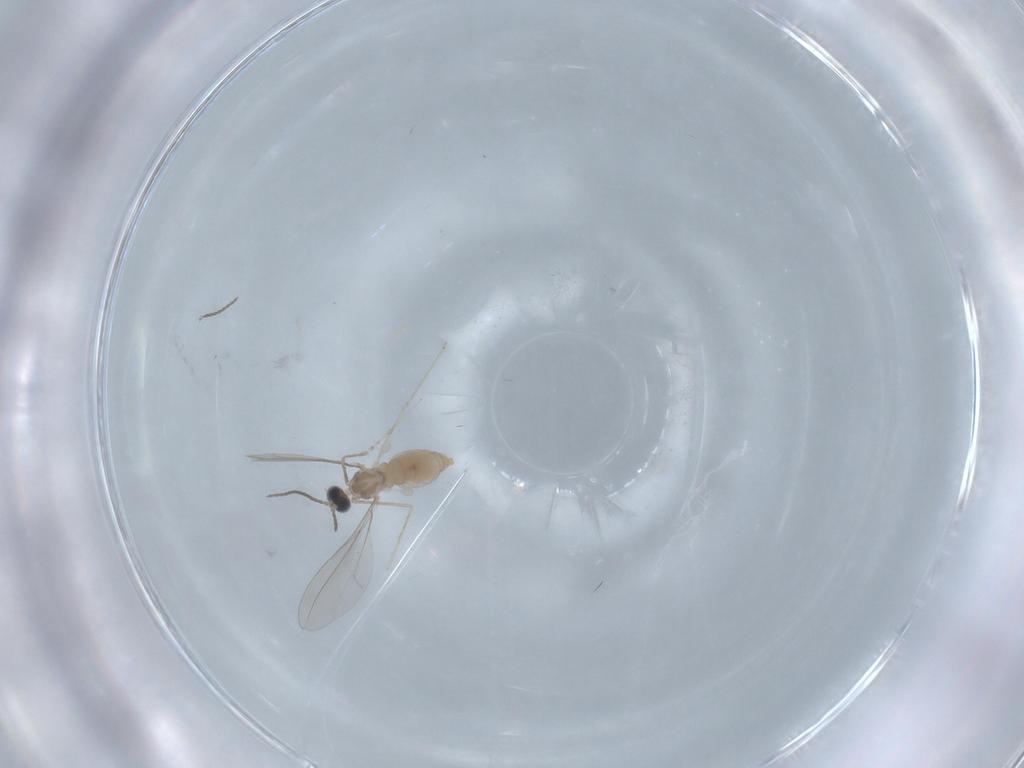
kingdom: Animalia
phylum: Arthropoda
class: Insecta
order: Diptera
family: Cecidomyiidae
